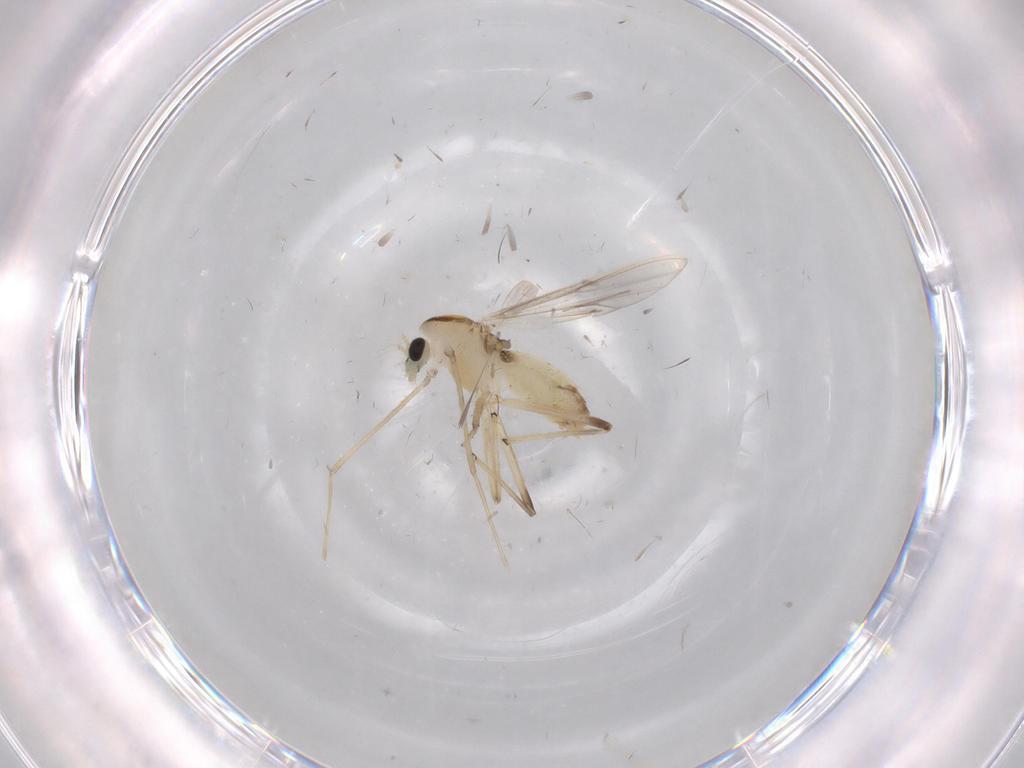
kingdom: Animalia
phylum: Arthropoda
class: Insecta
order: Diptera
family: Chironomidae
